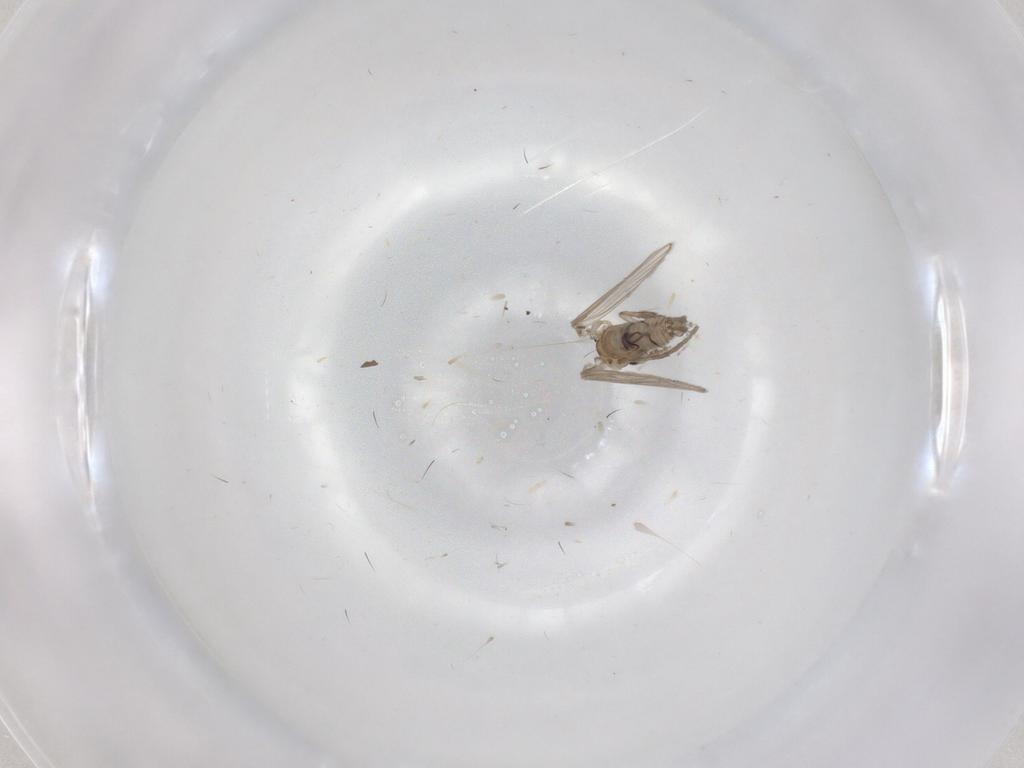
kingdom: Animalia
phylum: Arthropoda
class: Insecta
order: Diptera
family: Psychodidae
